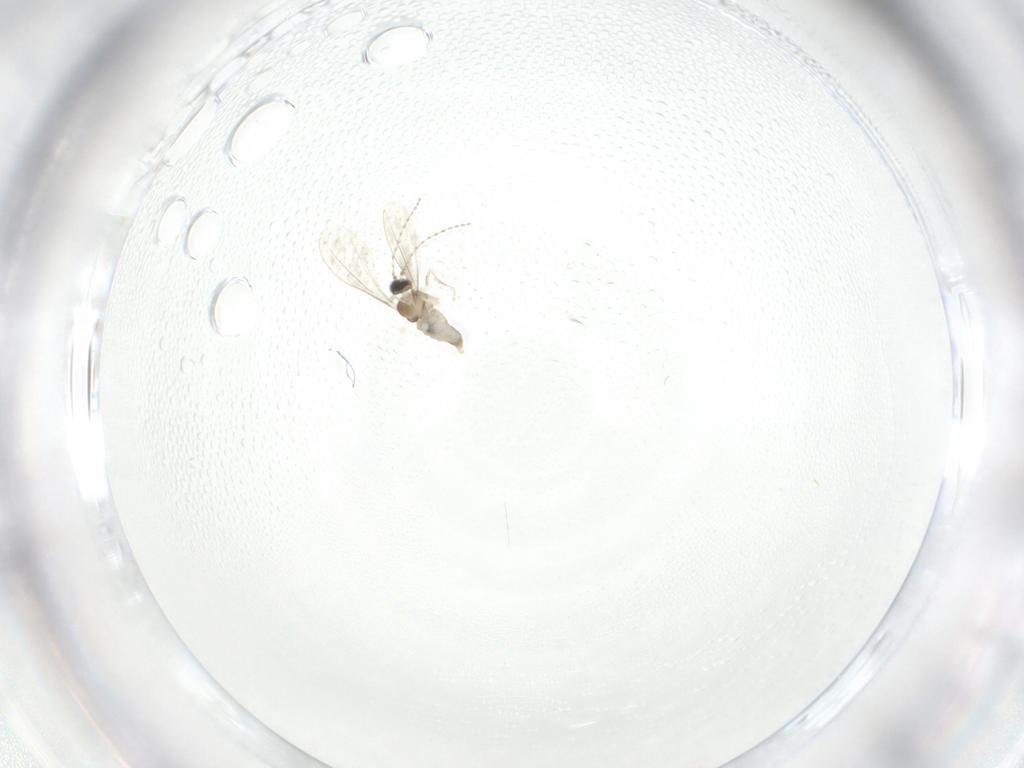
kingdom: Animalia
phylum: Arthropoda
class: Insecta
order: Diptera
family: Cecidomyiidae
